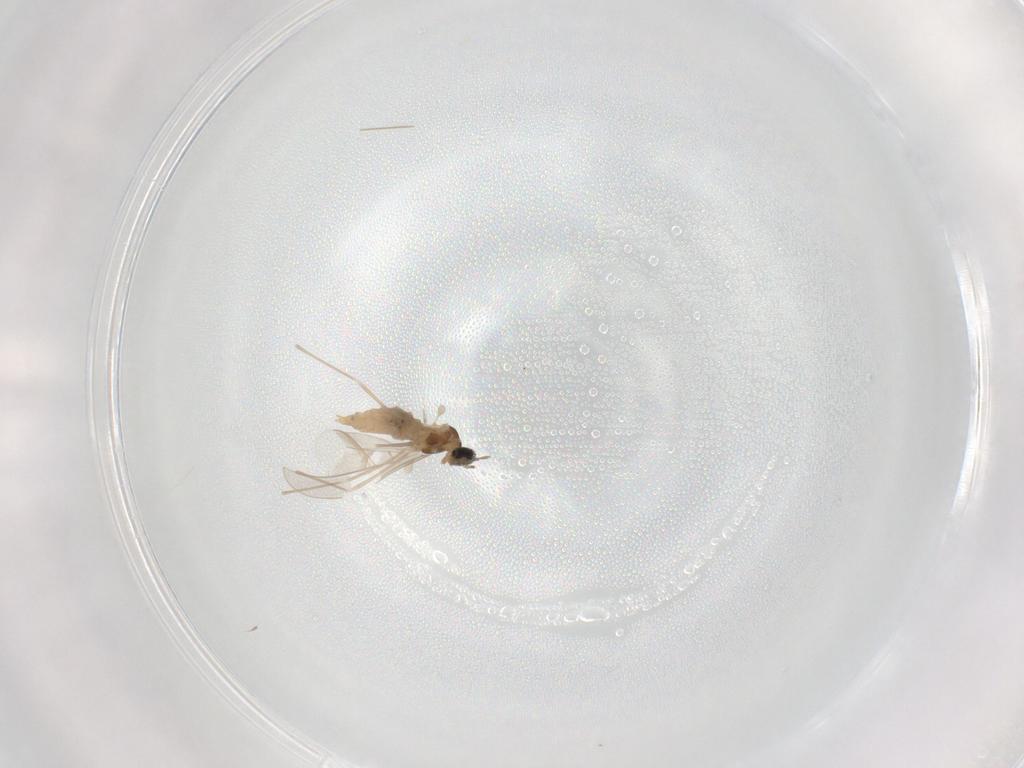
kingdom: Animalia
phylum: Arthropoda
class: Insecta
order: Diptera
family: Cecidomyiidae
